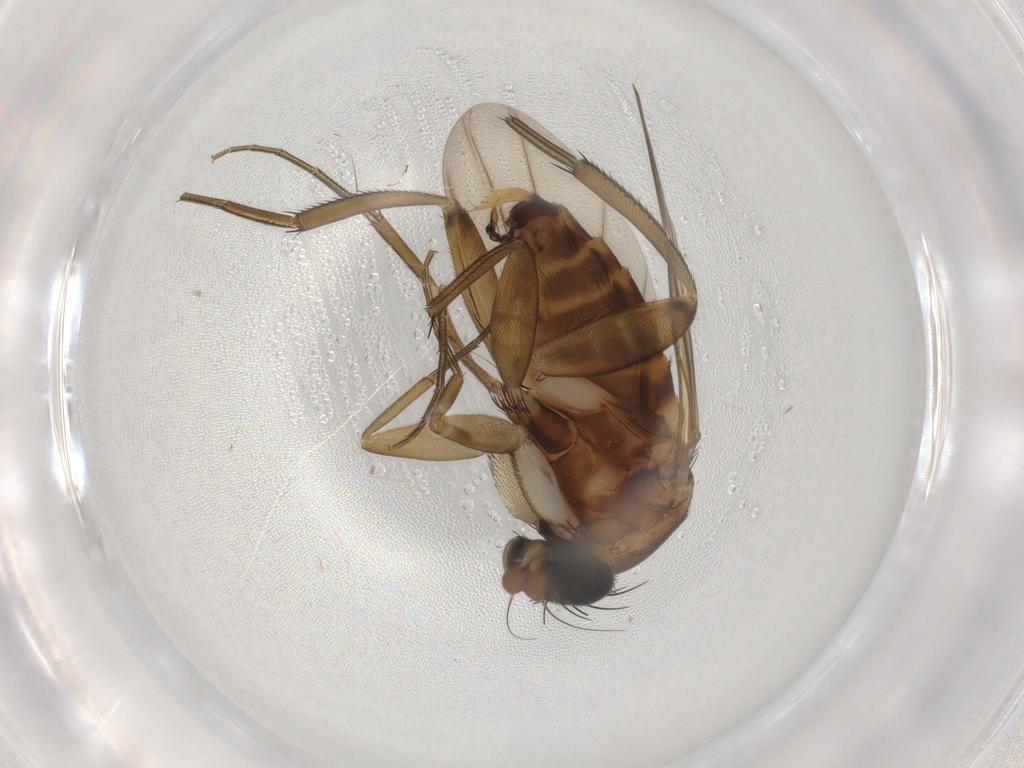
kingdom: Animalia
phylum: Arthropoda
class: Insecta
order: Diptera
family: Phoridae
